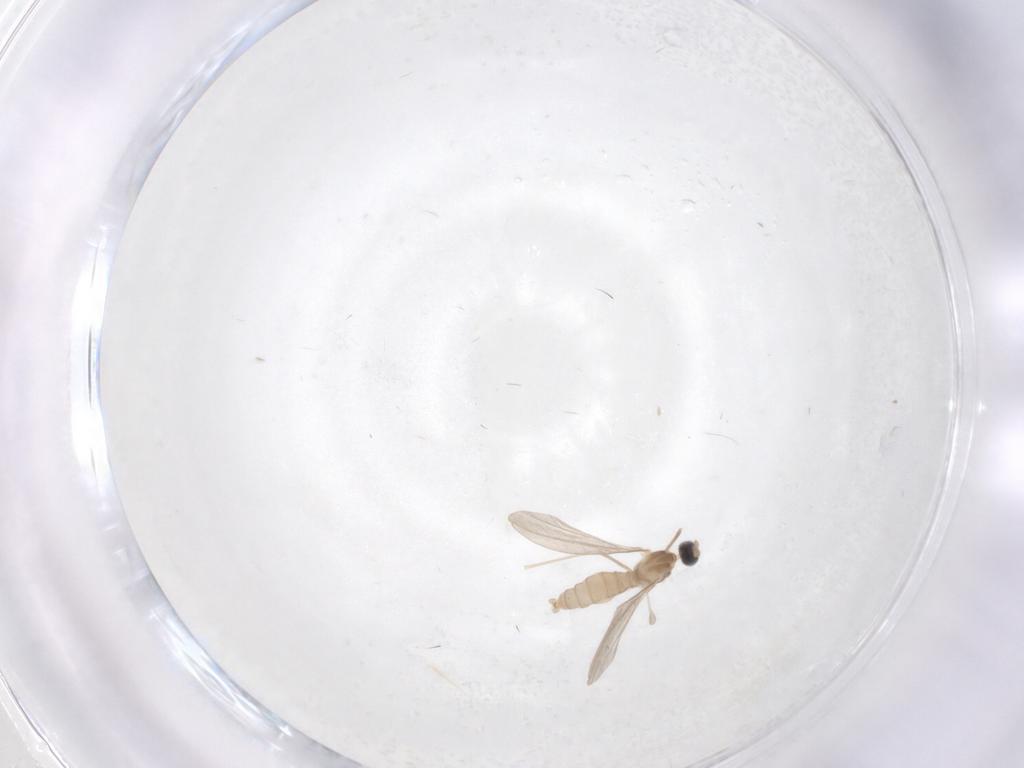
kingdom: Animalia
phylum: Arthropoda
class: Insecta
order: Diptera
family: Cecidomyiidae
